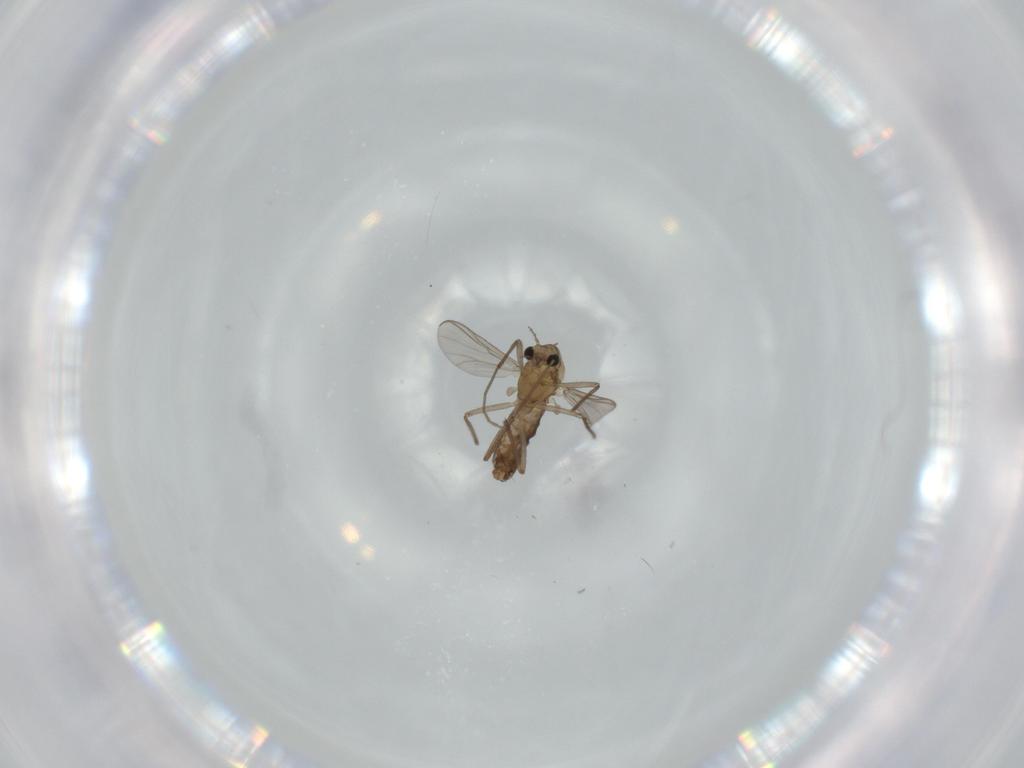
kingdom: Animalia
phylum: Arthropoda
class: Insecta
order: Diptera
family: Chironomidae
